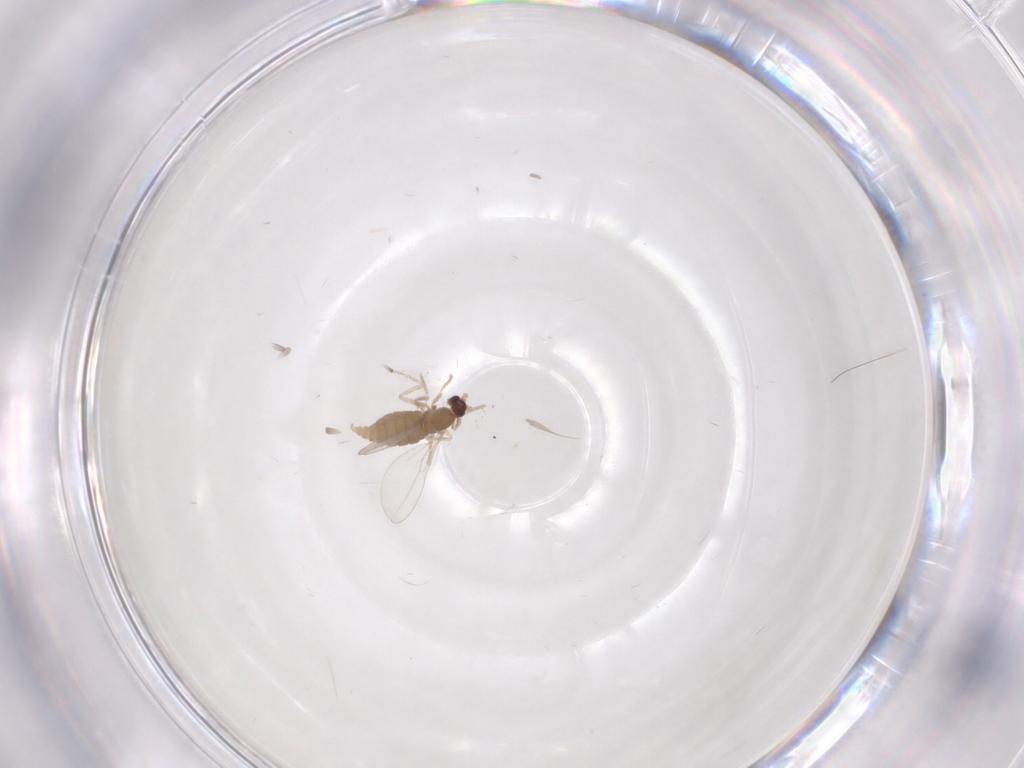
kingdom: Animalia
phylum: Arthropoda
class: Insecta
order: Diptera
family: Cecidomyiidae
